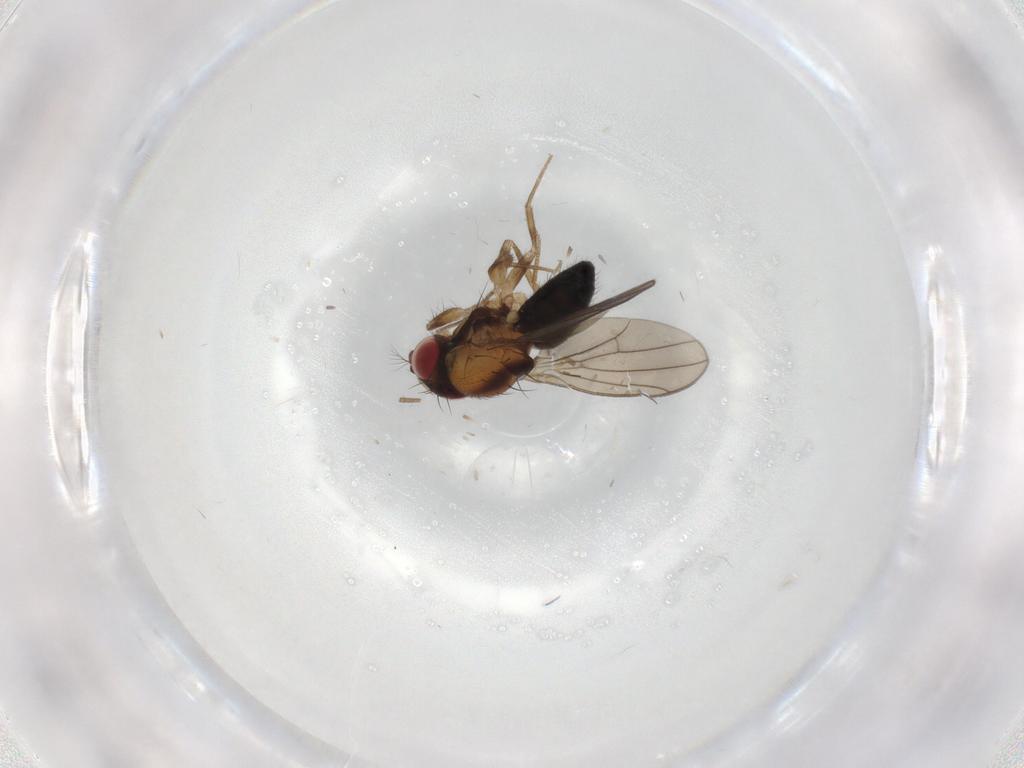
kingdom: Animalia
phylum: Arthropoda
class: Insecta
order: Diptera
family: Drosophilidae
